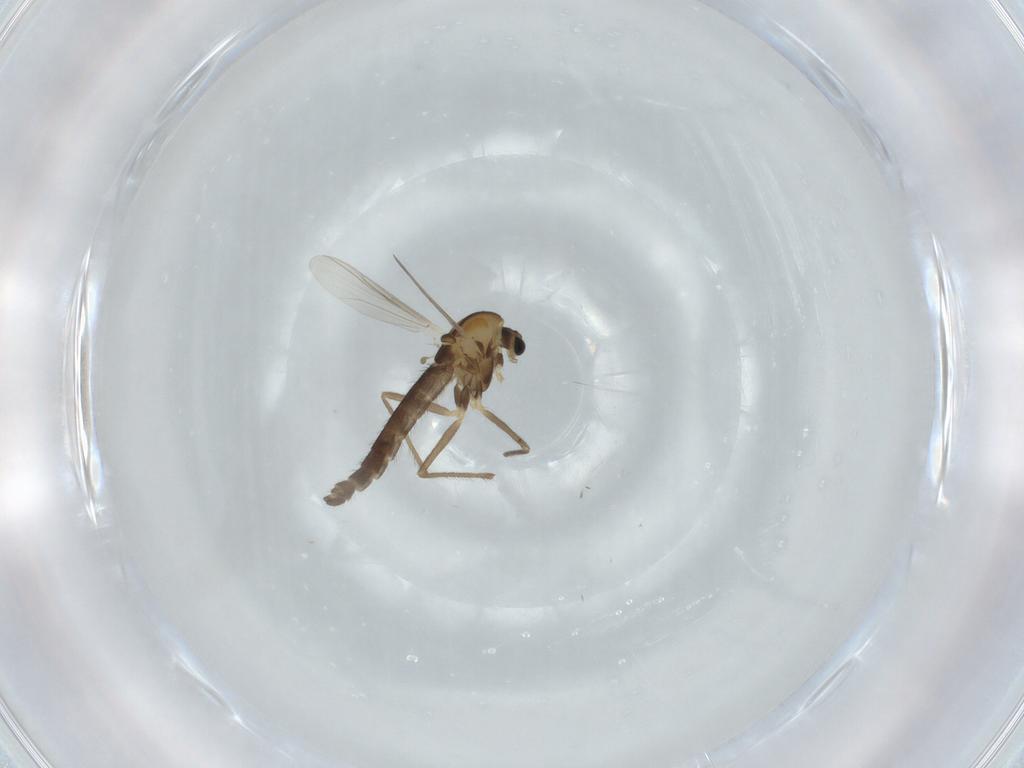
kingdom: Animalia
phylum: Arthropoda
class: Insecta
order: Diptera
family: Chironomidae
